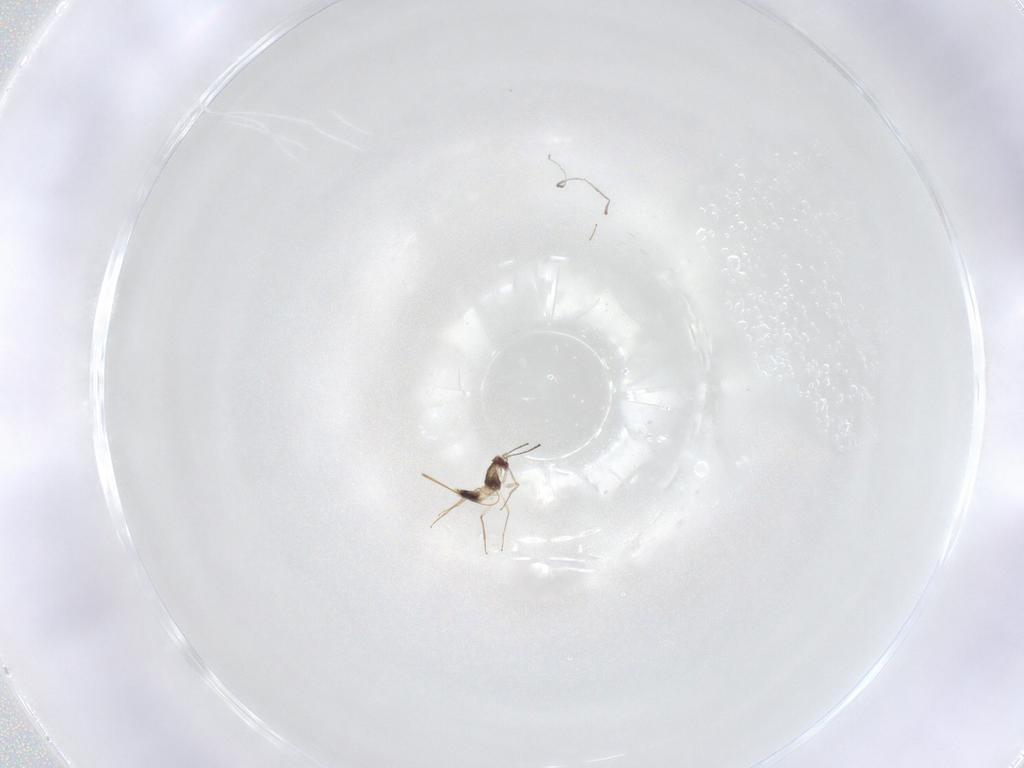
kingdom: Animalia
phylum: Arthropoda
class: Insecta
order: Hymenoptera
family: Mymaridae
